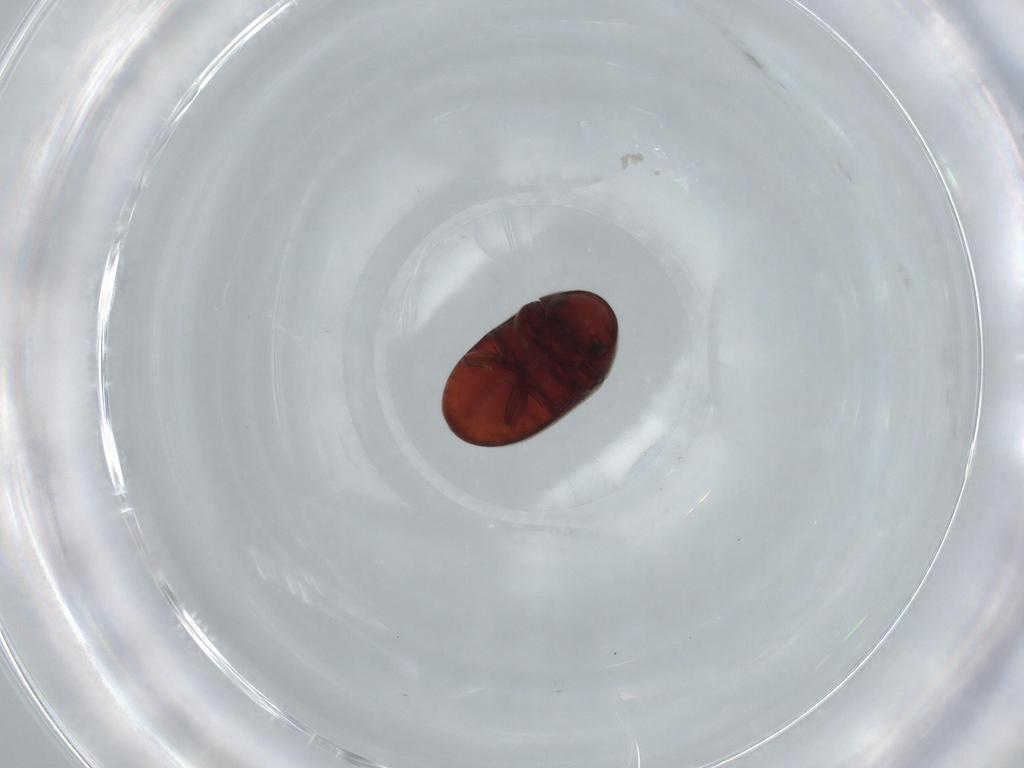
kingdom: Animalia
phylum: Arthropoda
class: Insecta
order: Coleoptera
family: Ptinidae
